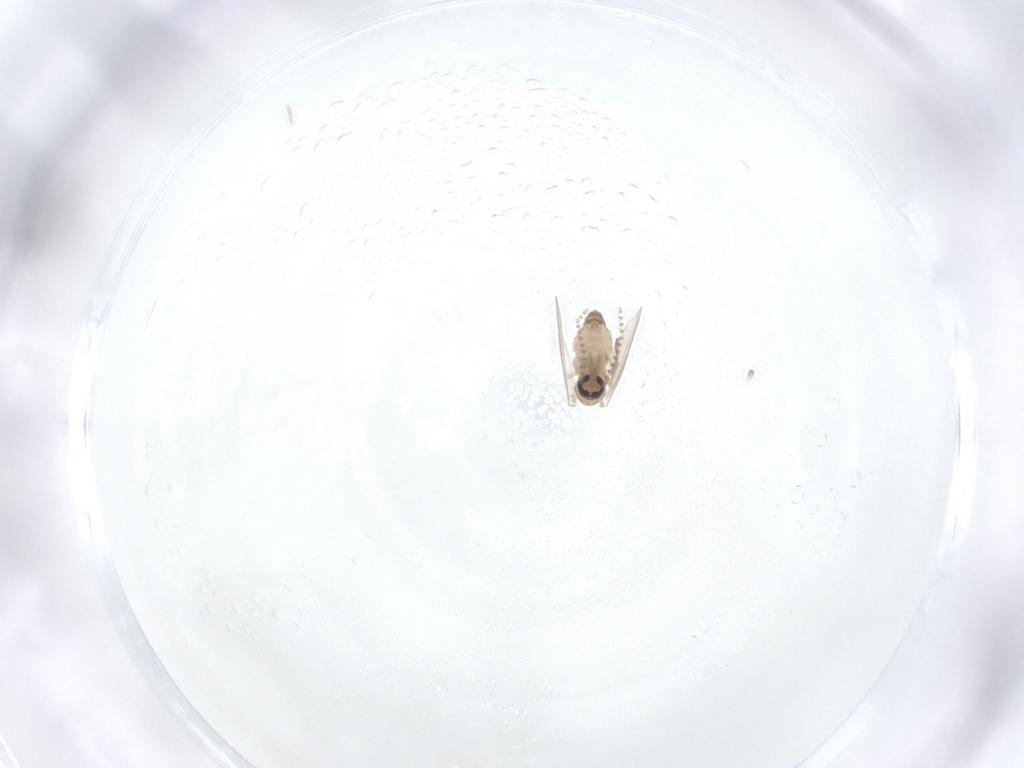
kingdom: Animalia
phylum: Arthropoda
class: Insecta
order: Diptera
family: Psychodidae
